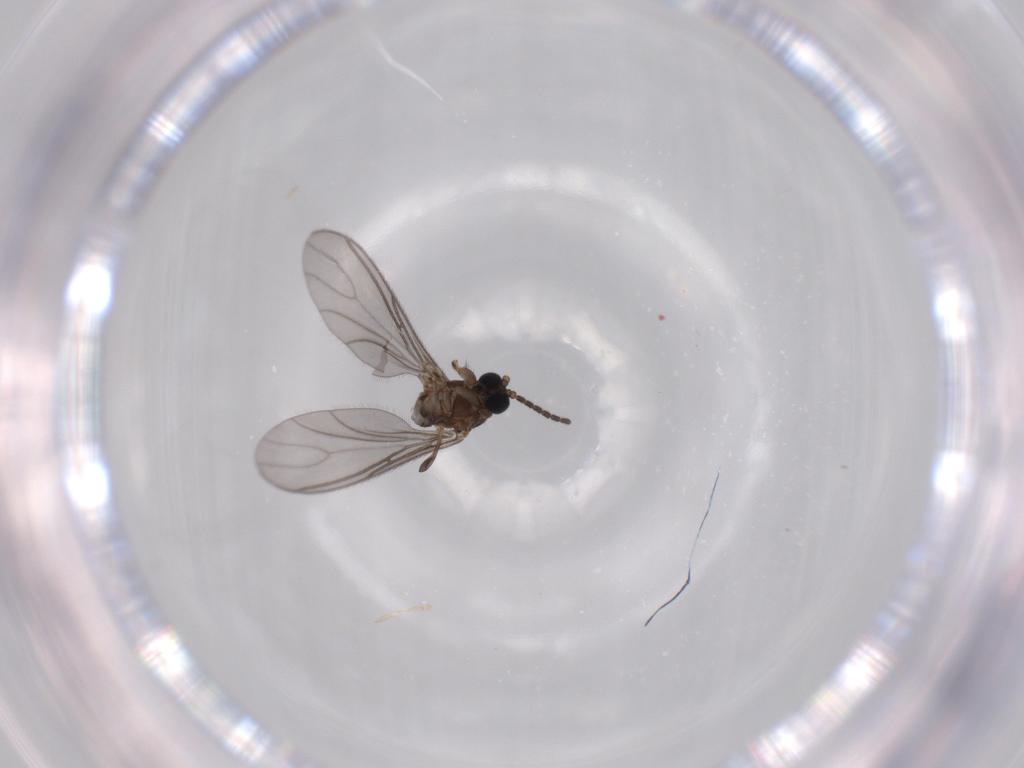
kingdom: Animalia
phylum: Arthropoda
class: Insecta
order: Diptera
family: Sciaridae
